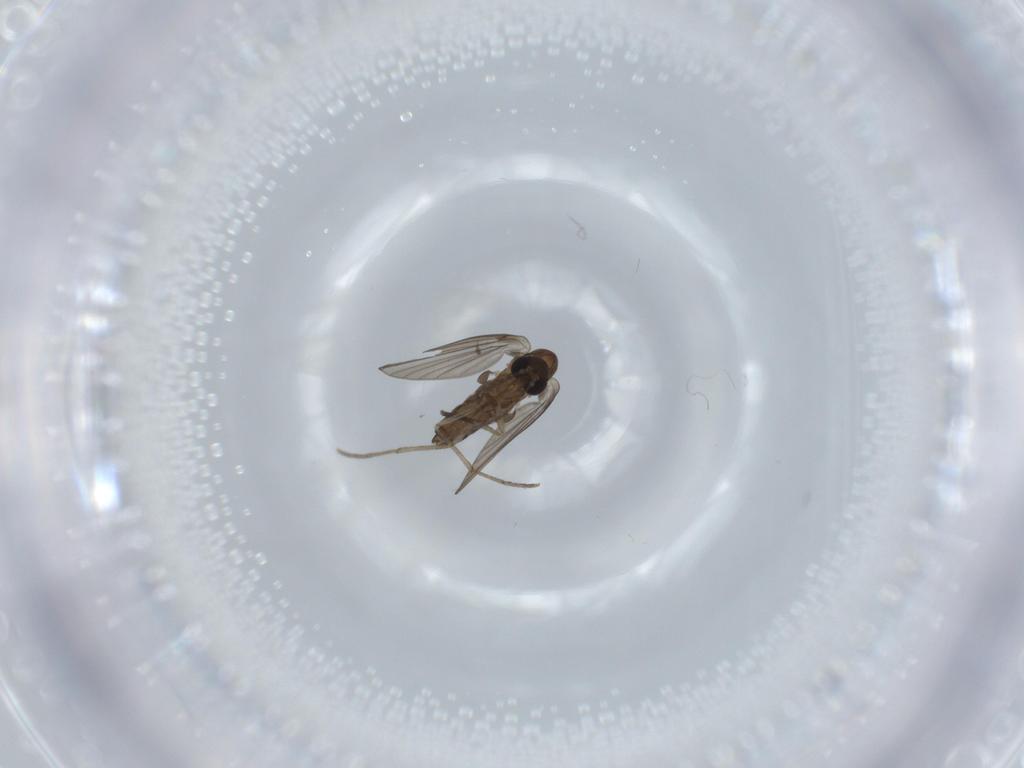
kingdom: Animalia
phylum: Arthropoda
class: Insecta
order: Diptera
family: Psychodidae
